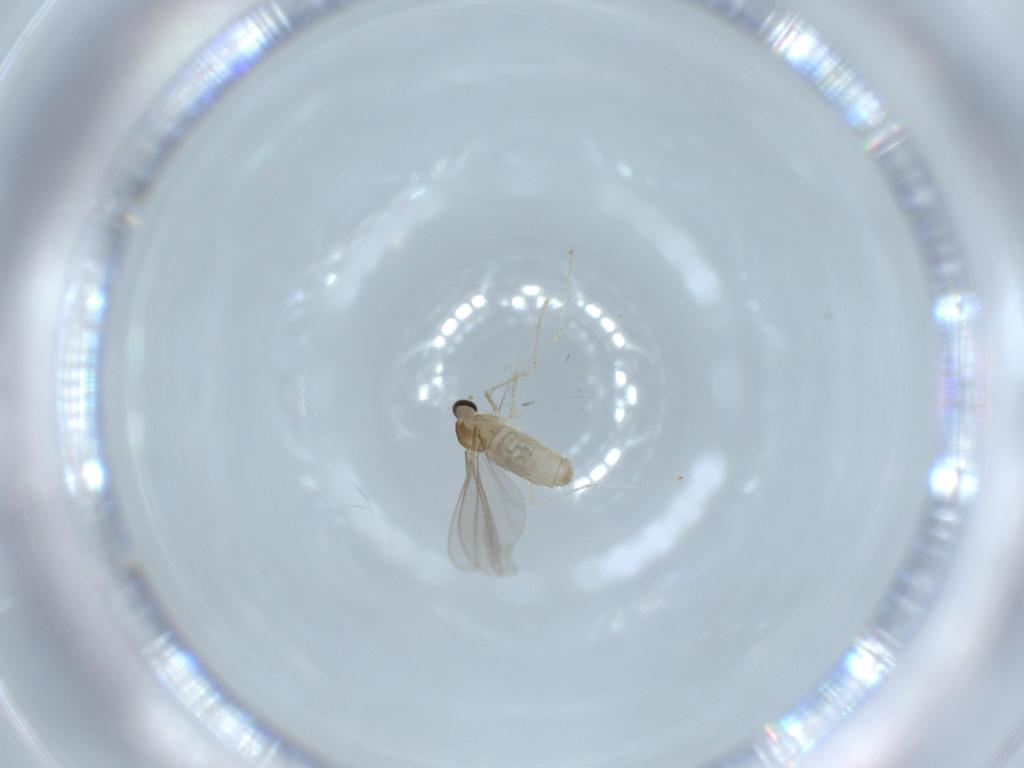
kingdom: Animalia
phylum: Arthropoda
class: Insecta
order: Diptera
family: Cecidomyiidae
